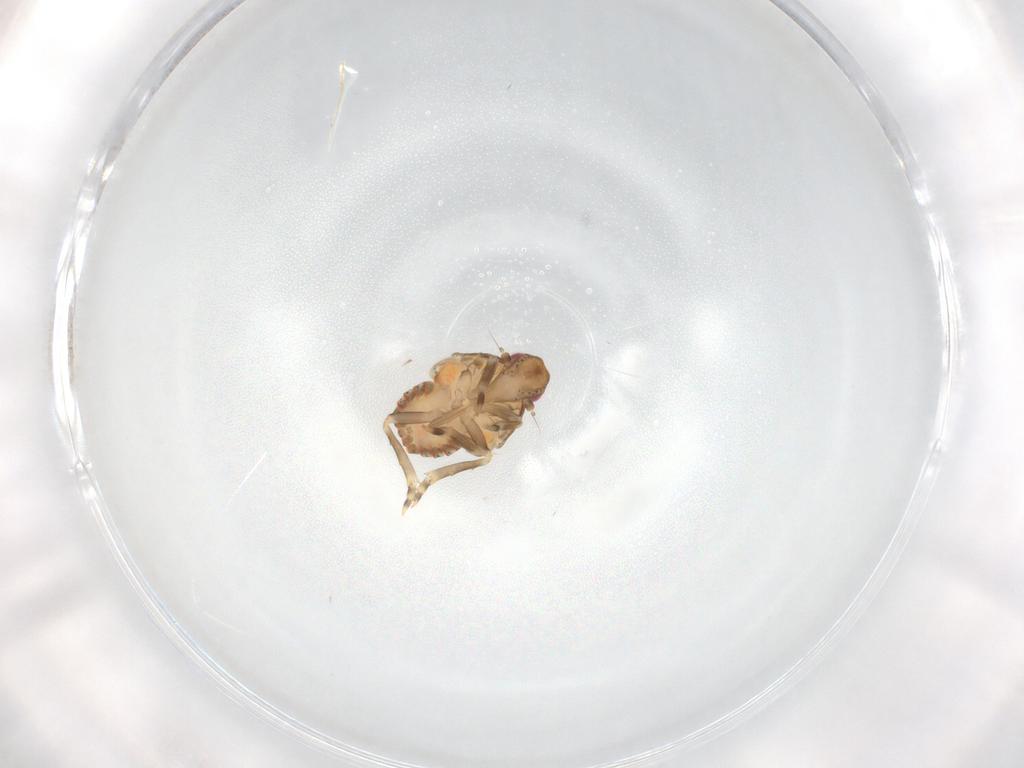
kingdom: Animalia
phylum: Arthropoda
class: Insecta
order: Hemiptera
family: Flatidae
